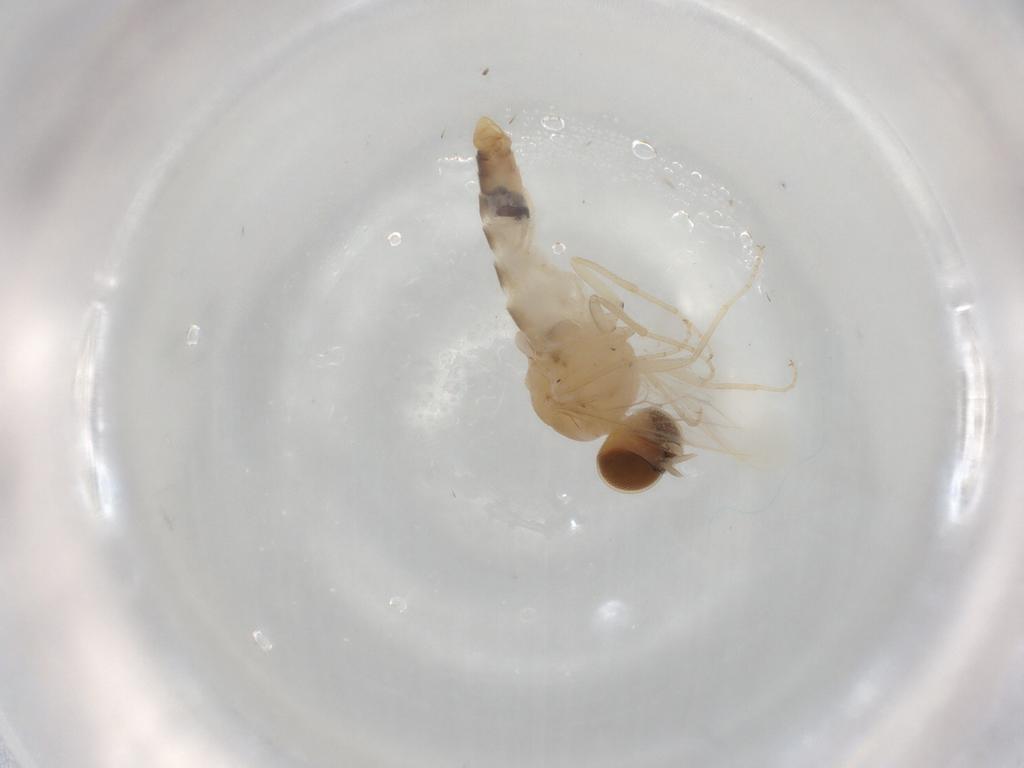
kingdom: Animalia
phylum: Arthropoda
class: Insecta
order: Diptera
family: Scenopinidae
